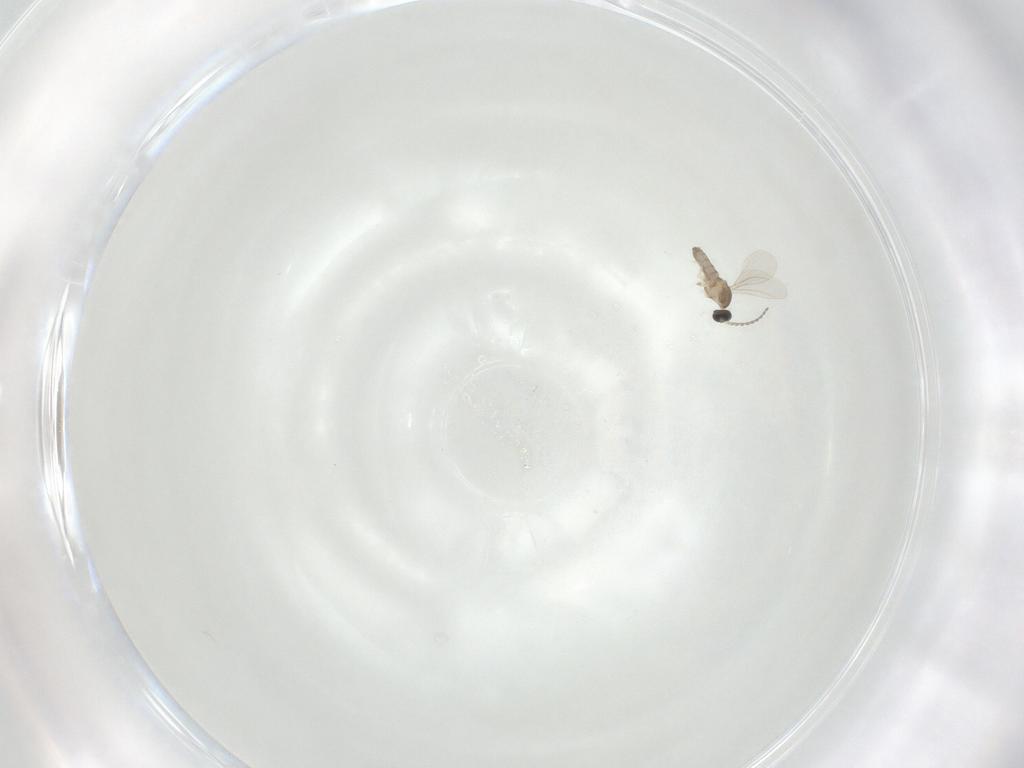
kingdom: Animalia
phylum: Arthropoda
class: Insecta
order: Diptera
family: Cecidomyiidae
